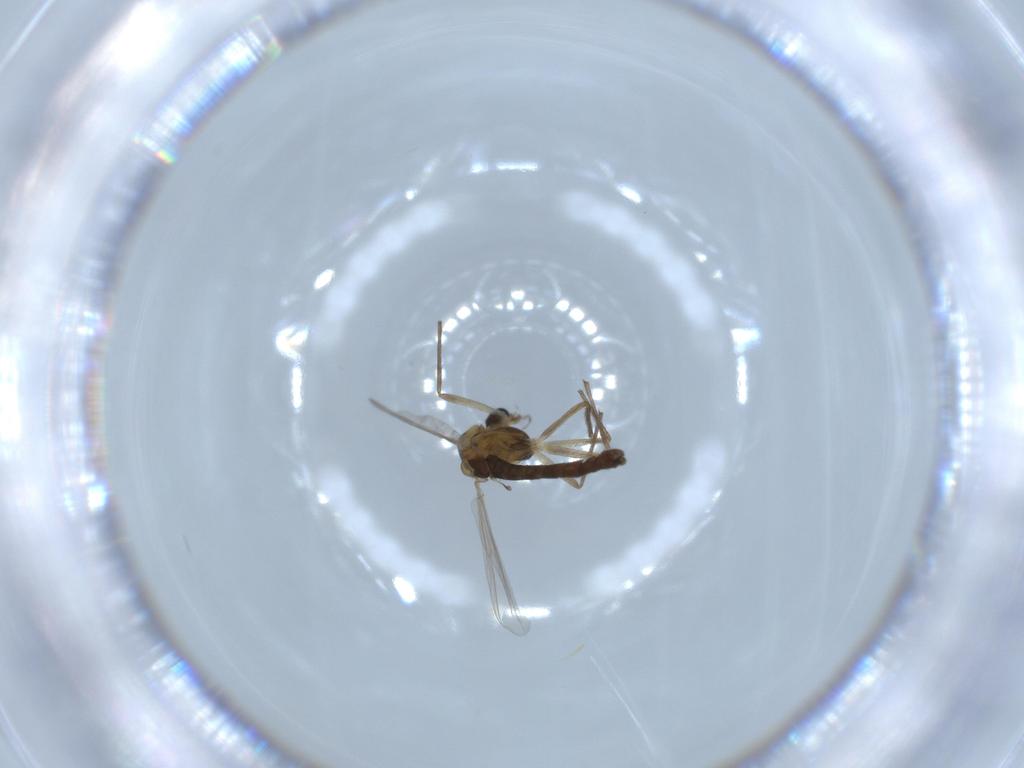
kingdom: Animalia
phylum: Arthropoda
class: Insecta
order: Diptera
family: Chironomidae
